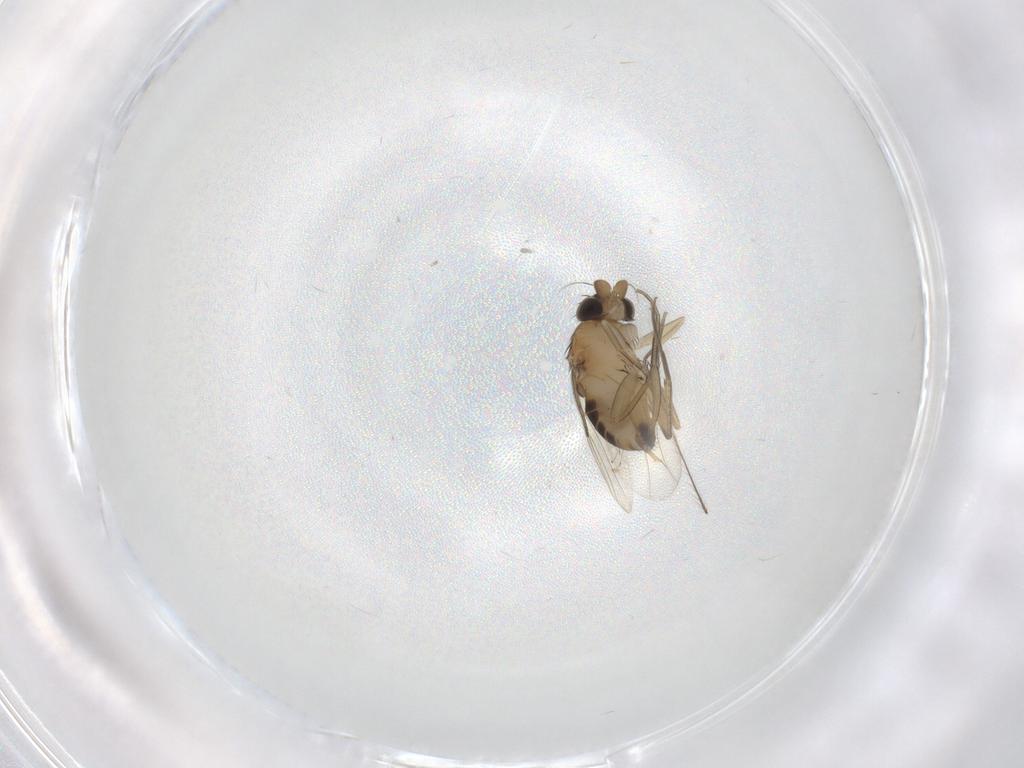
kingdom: Animalia
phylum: Arthropoda
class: Insecta
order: Diptera
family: Phoridae
